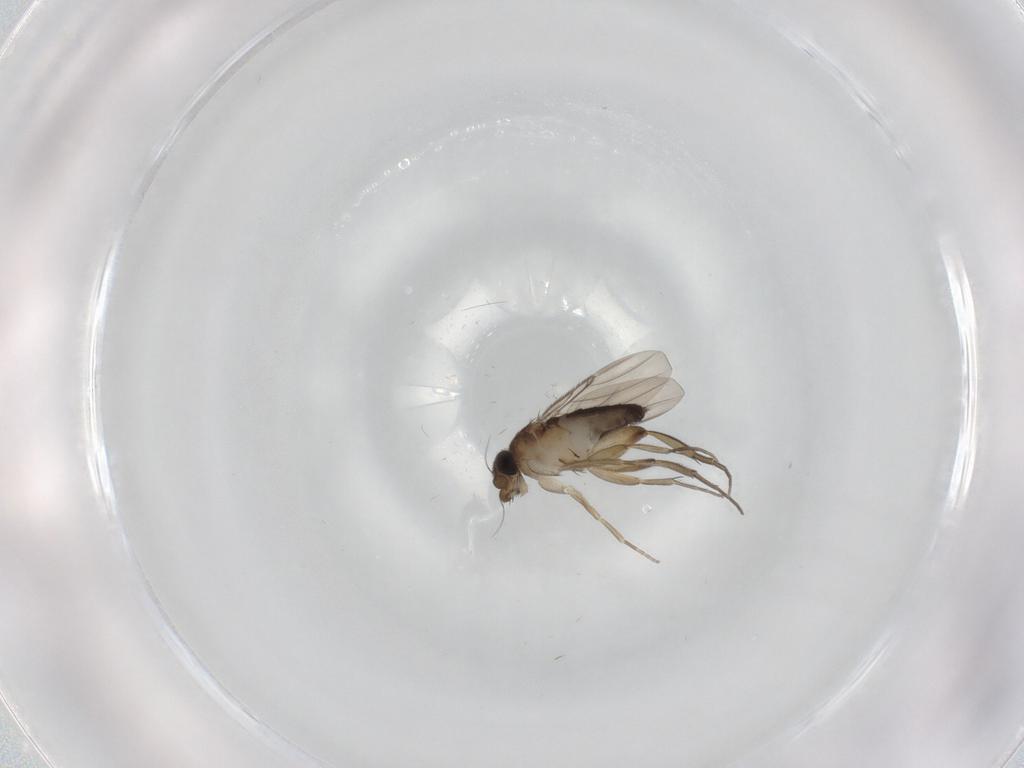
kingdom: Animalia
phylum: Arthropoda
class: Insecta
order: Diptera
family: Phoridae
